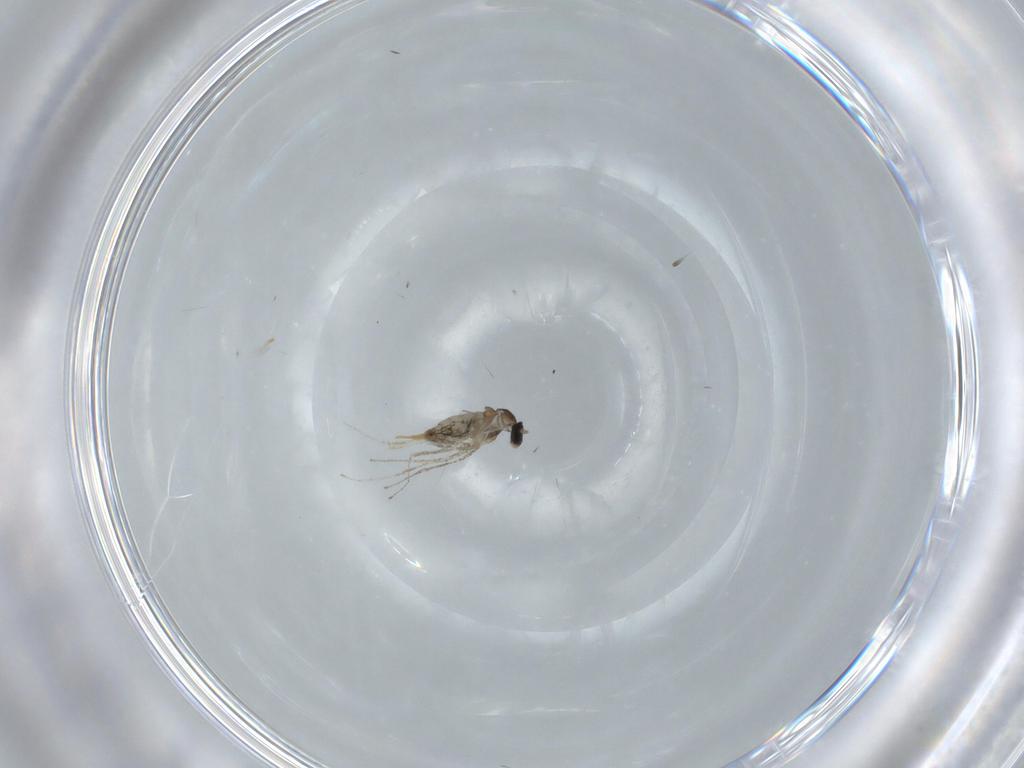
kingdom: Animalia
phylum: Arthropoda
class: Insecta
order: Diptera
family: Cecidomyiidae
